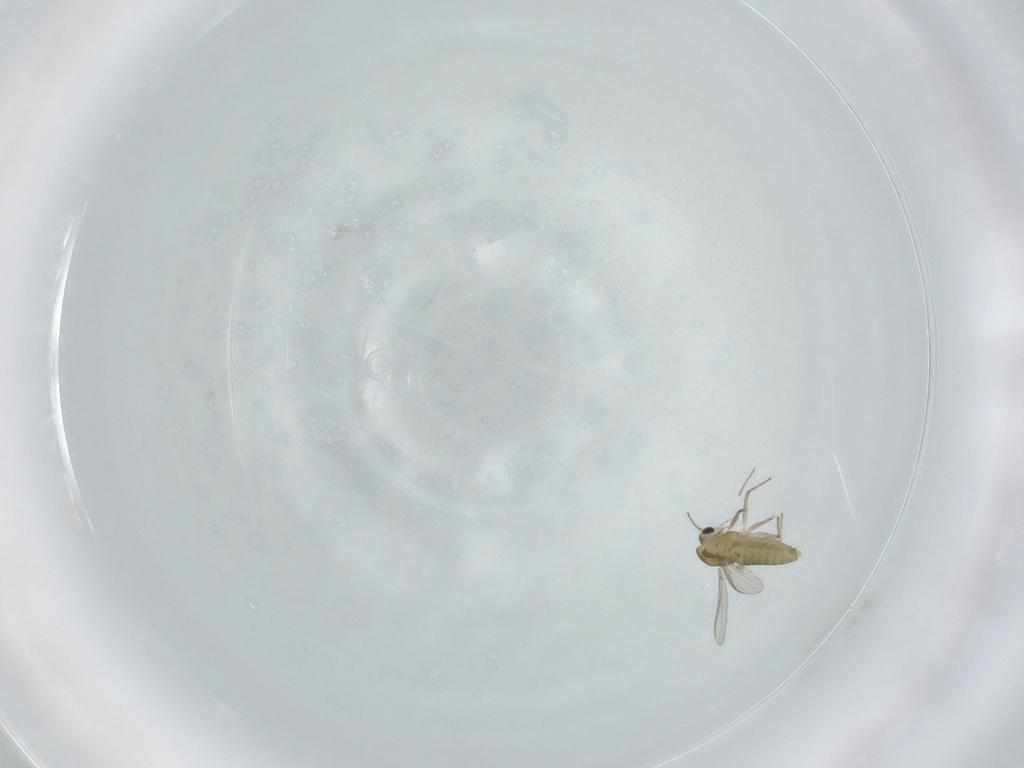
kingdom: Animalia
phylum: Arthropoda
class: Insecta
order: Diptera
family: Chironomidae
